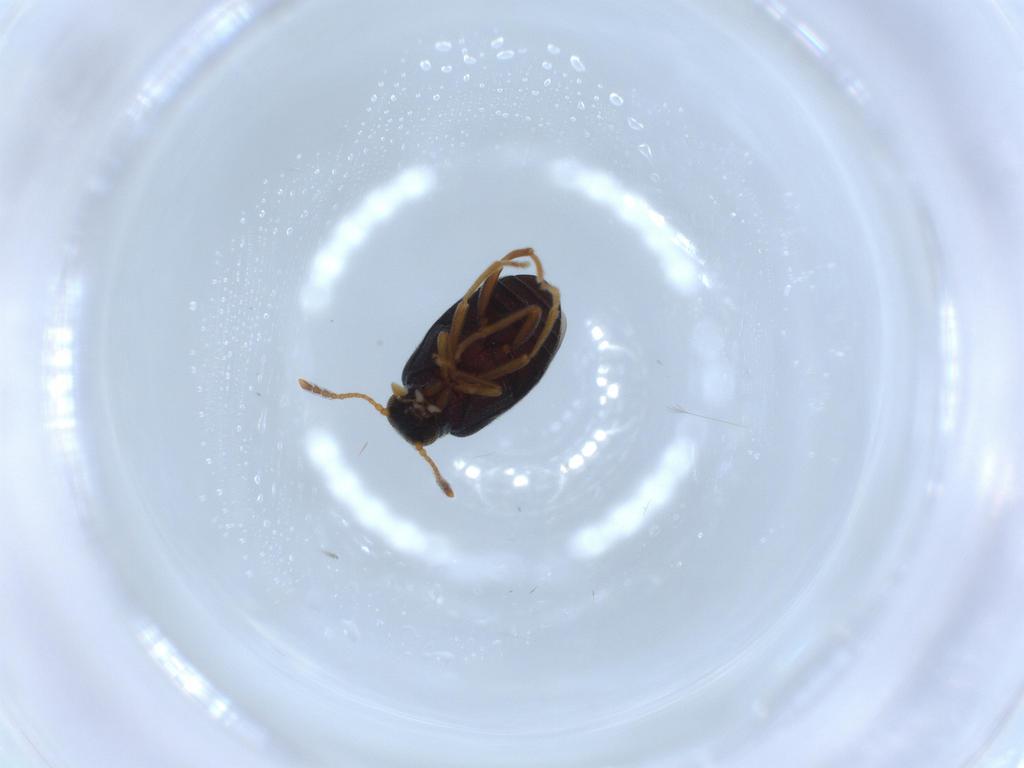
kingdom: Animalia
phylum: Arthropoda
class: Insecta
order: Coleoptera
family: Aderidae
